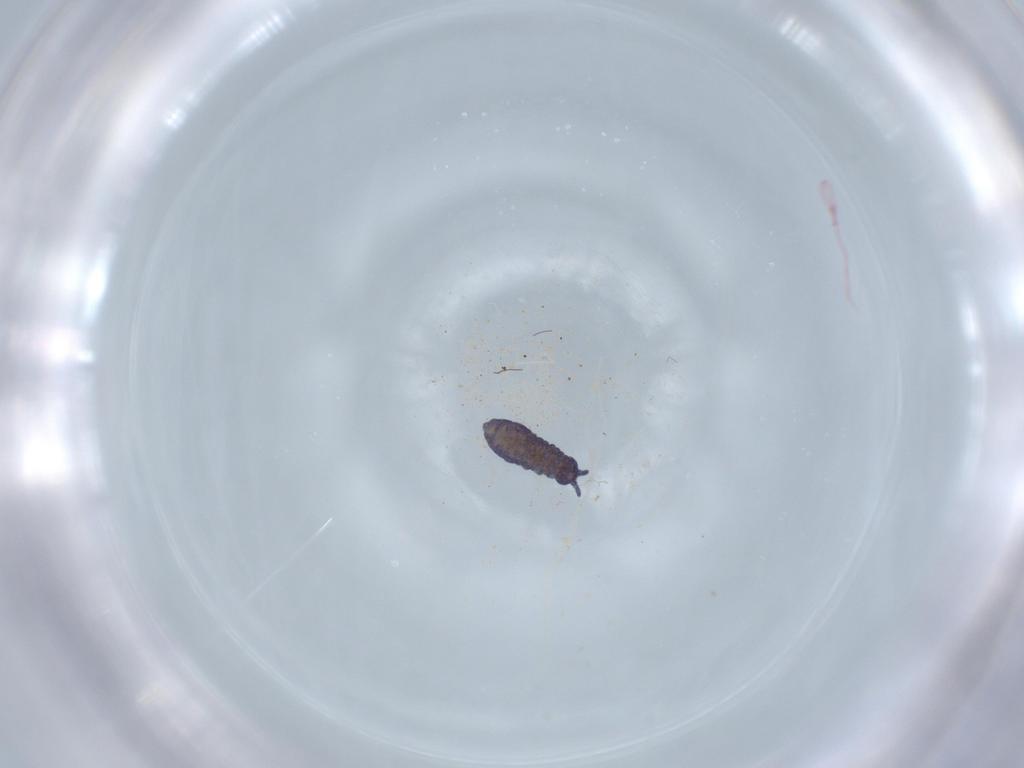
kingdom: Animalia
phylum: Arthropoda
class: Collembola
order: Poduromorpha
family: Brachystomellidae
